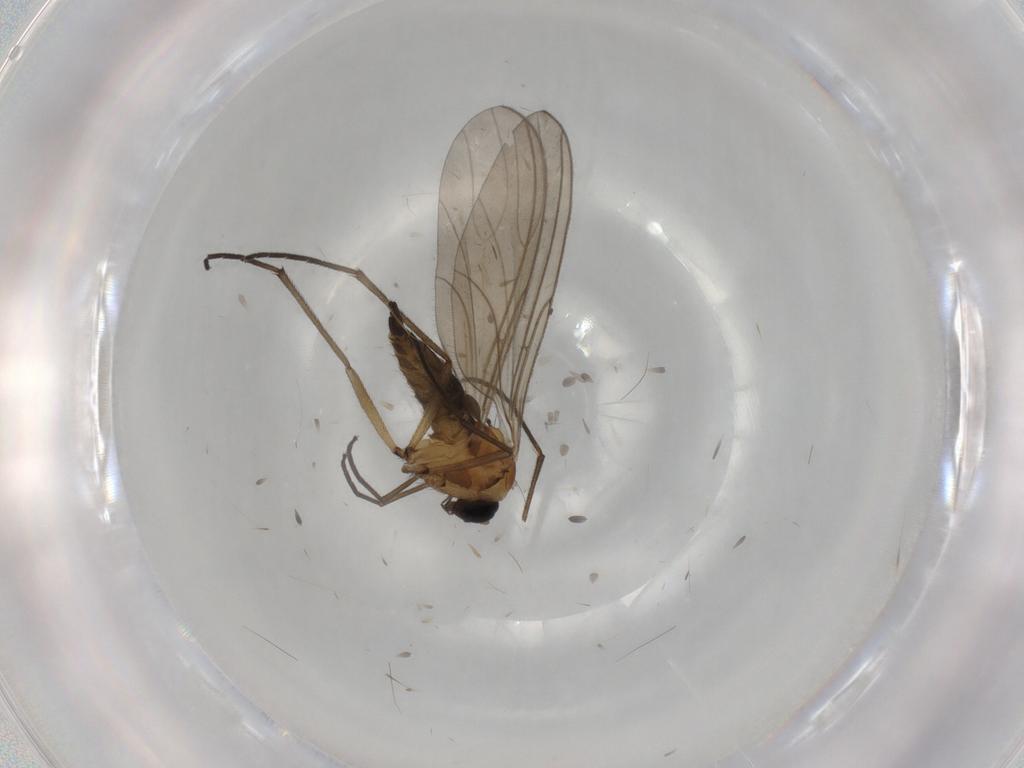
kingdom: Animalia
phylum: Arthropoda
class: Insecta
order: Diptera
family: Sciaridae
